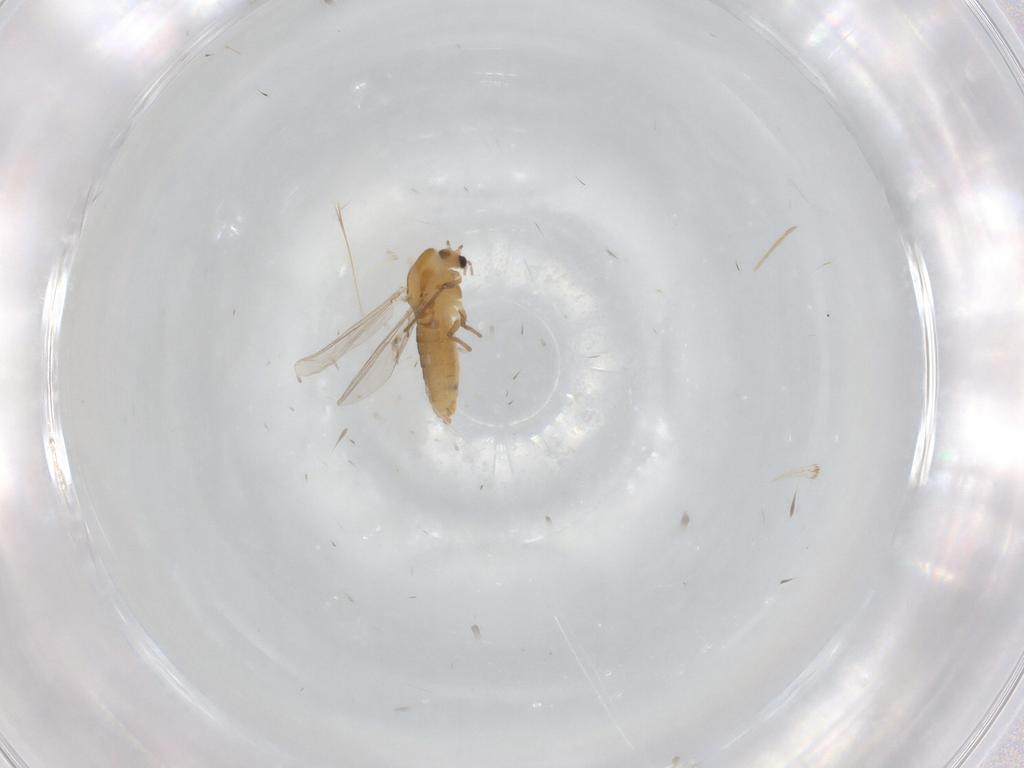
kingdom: Animalia
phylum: Arthropoda
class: Insecta
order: Diptera
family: Chironomidae
